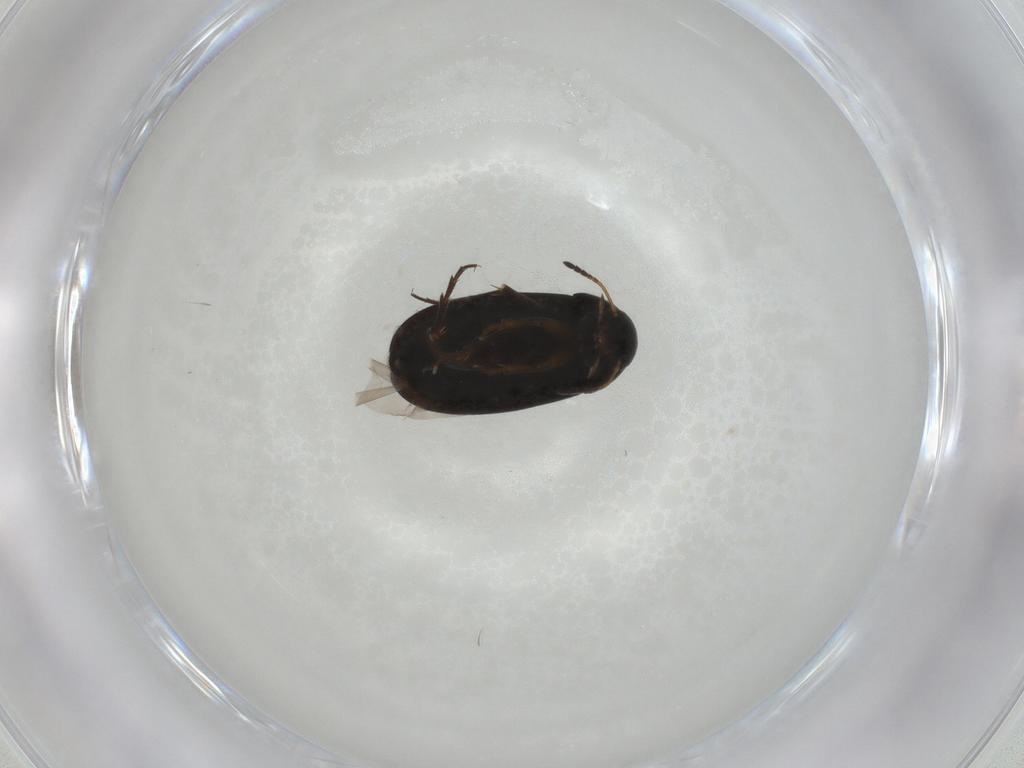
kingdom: Animalia
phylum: Arthropoda
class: Insecta
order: Coleoptera
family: Scraptiidae
